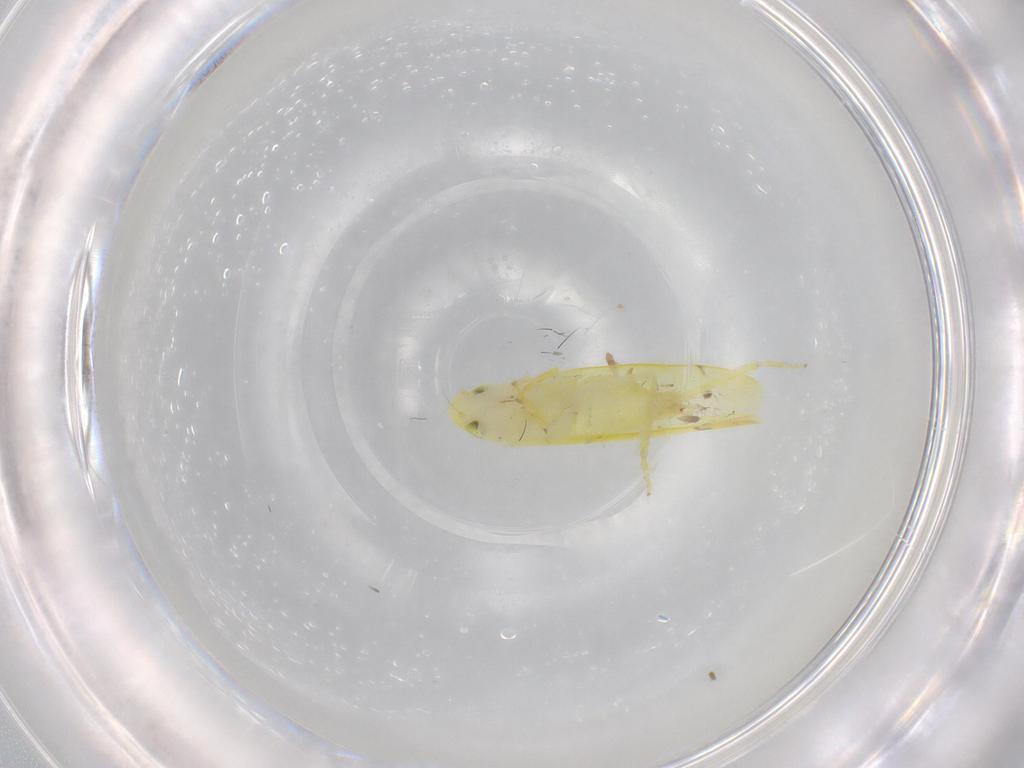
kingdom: Animalia
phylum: Arthropoda
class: Insecta
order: Hemiptera
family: Cicadellidae
